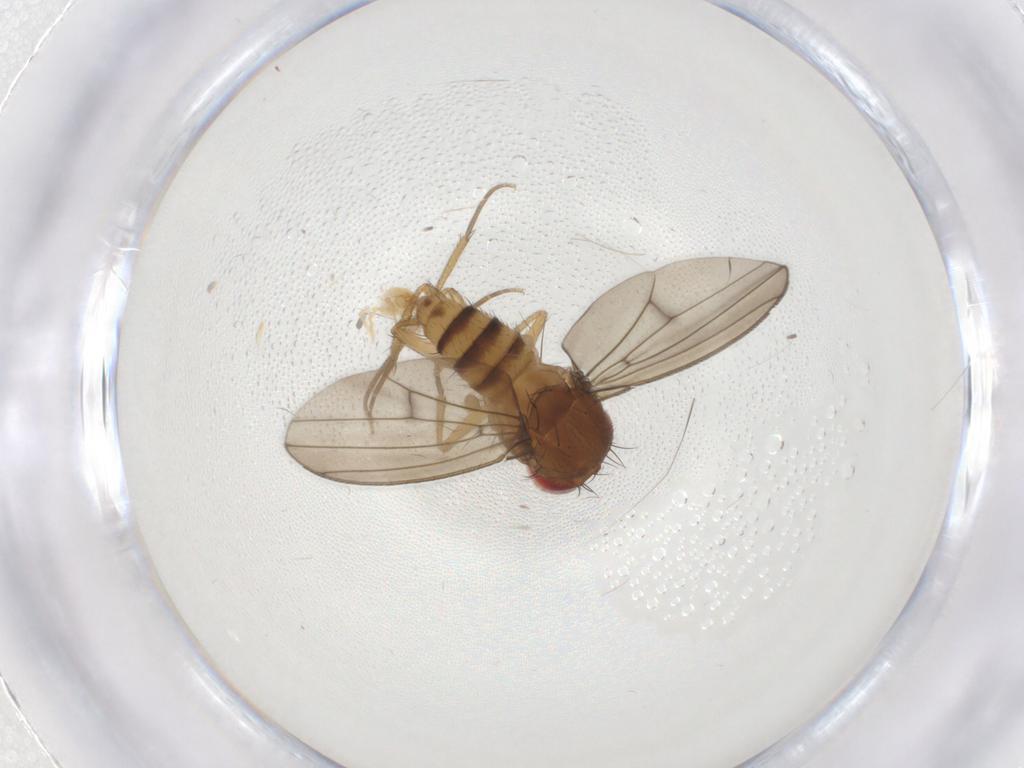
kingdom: Animalia
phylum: Arthropoda
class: Insecta
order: Diptera
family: Drosophilidae
